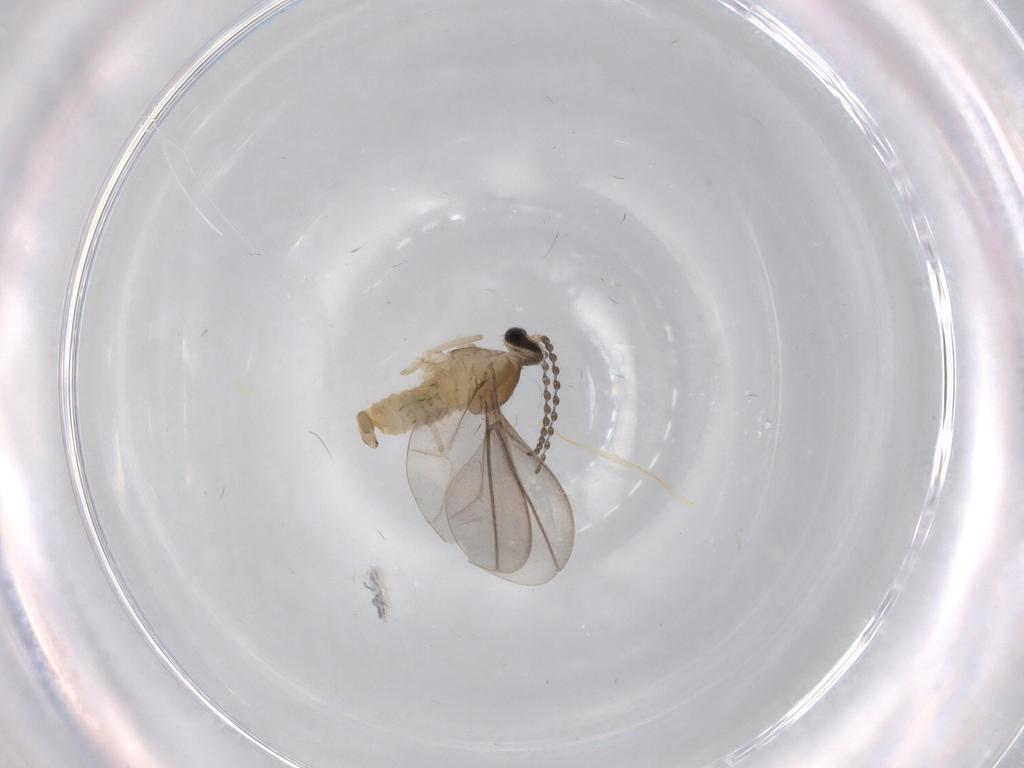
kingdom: Animalia
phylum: Arthropoda
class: Insecta
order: Diptera
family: Cecidomyiidae
